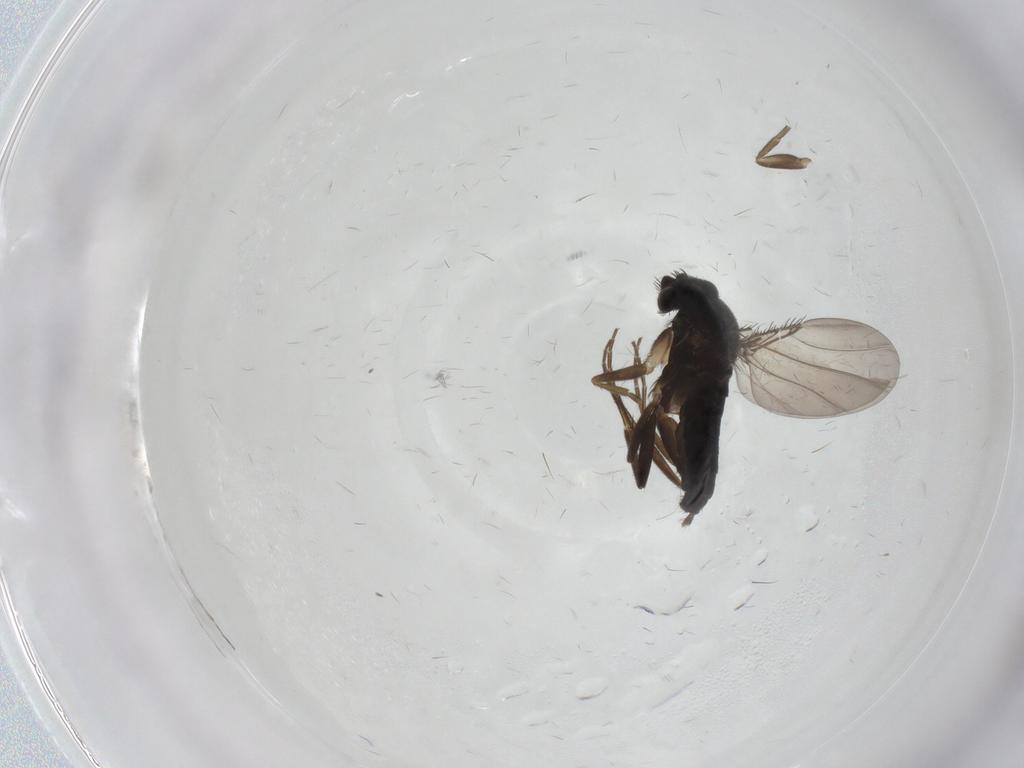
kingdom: Animalia
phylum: Arthropoda
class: Insecta
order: Diptera
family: Phoridae
